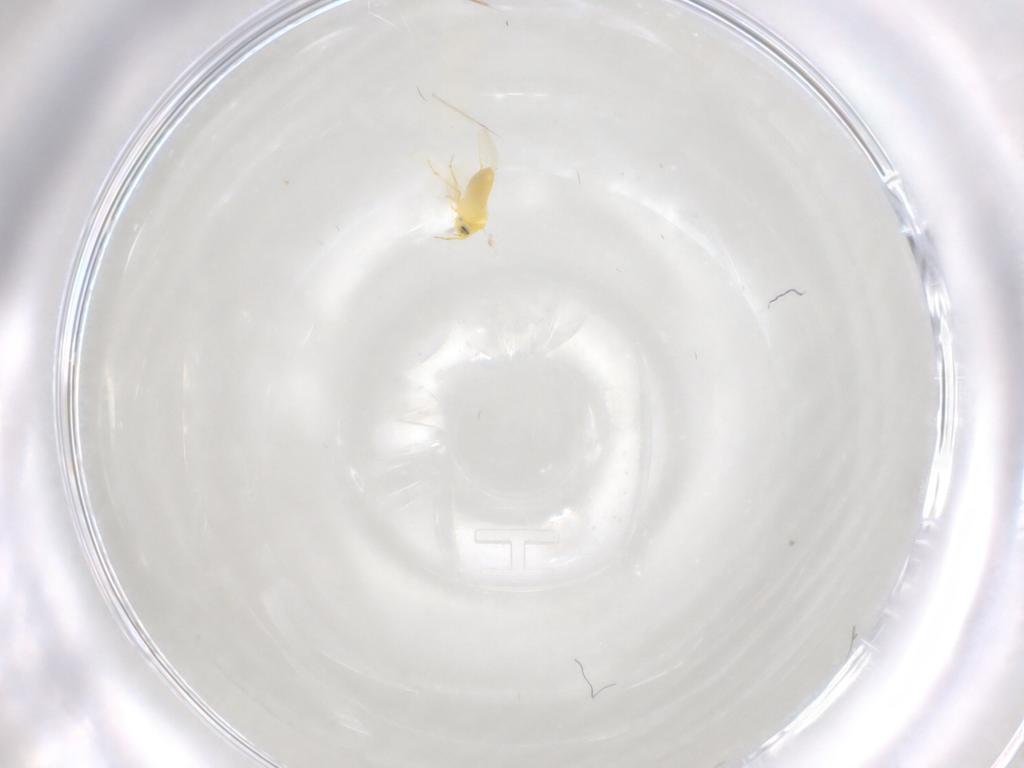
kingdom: Animalia
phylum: Arthropoda
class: Insecta
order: Hemiptera
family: Aleyrodidae
